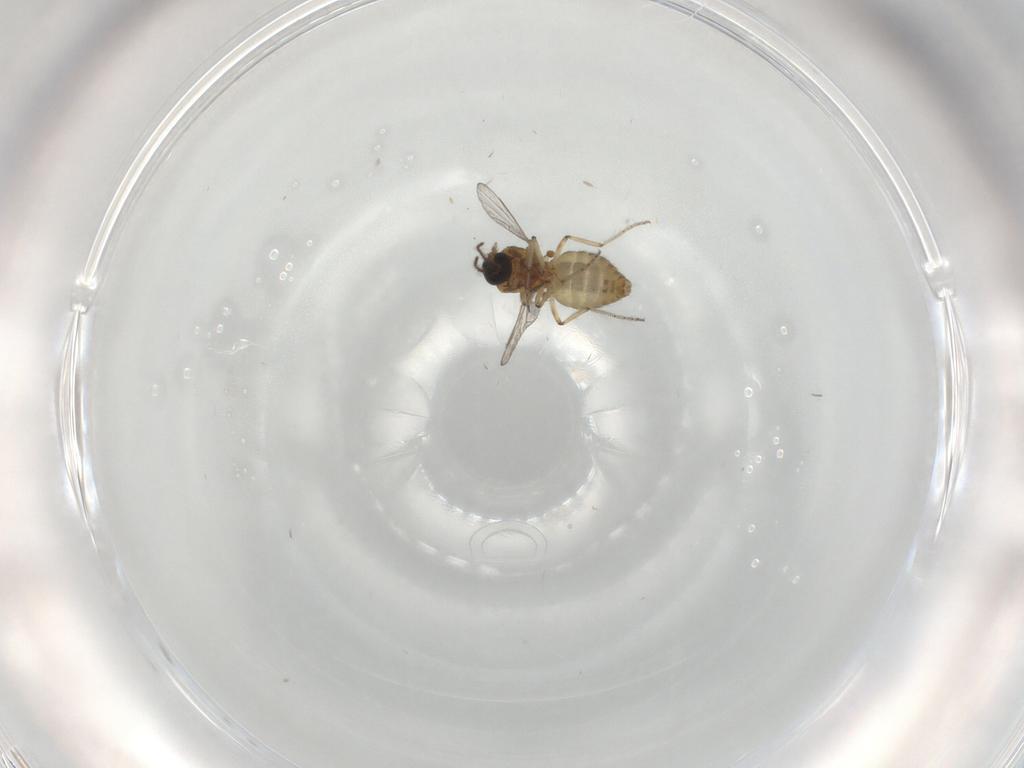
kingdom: Animalia
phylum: Arthropoda
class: Insecta
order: Diptera
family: Ceratopogonidae
